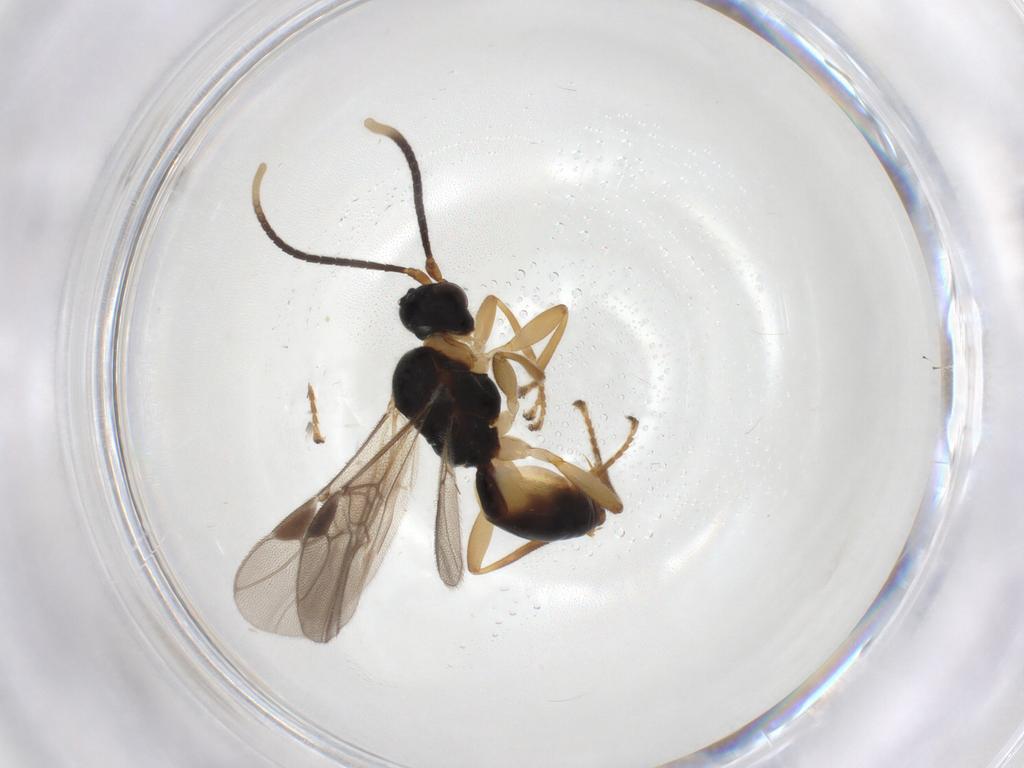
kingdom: Animalia
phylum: Arthropoda
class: Insecta
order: Hymenoptera
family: Braconidae
